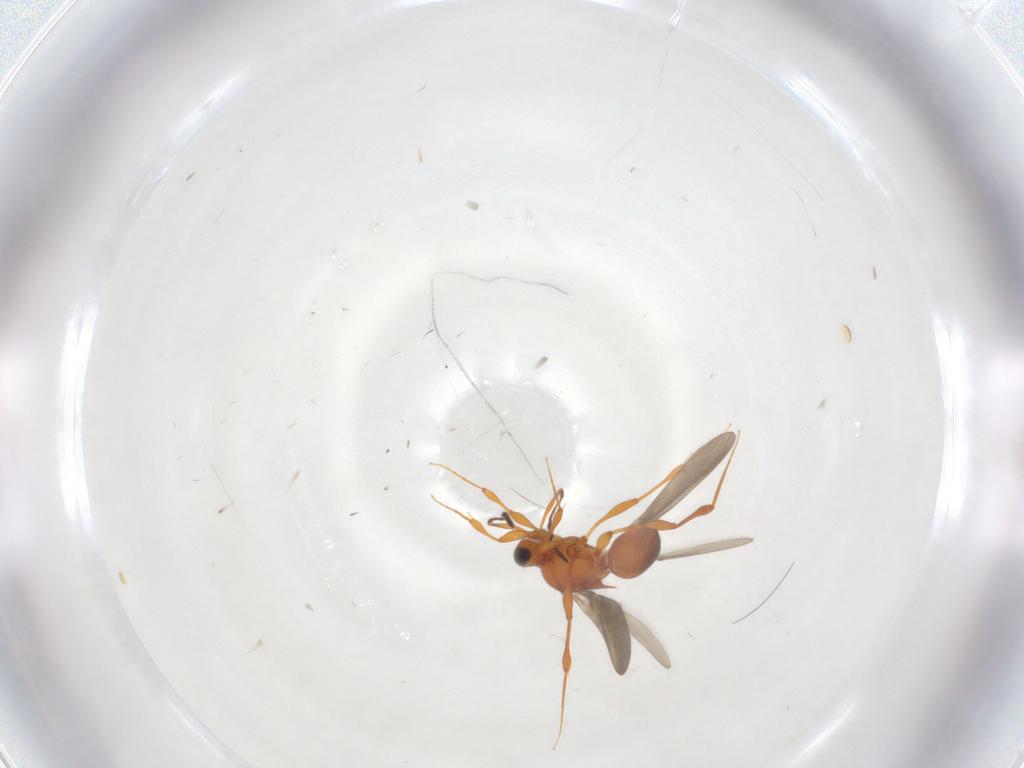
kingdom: Animalia
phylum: Arthropoda
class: Insecta
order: Hymenoptera
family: Platygastridae
